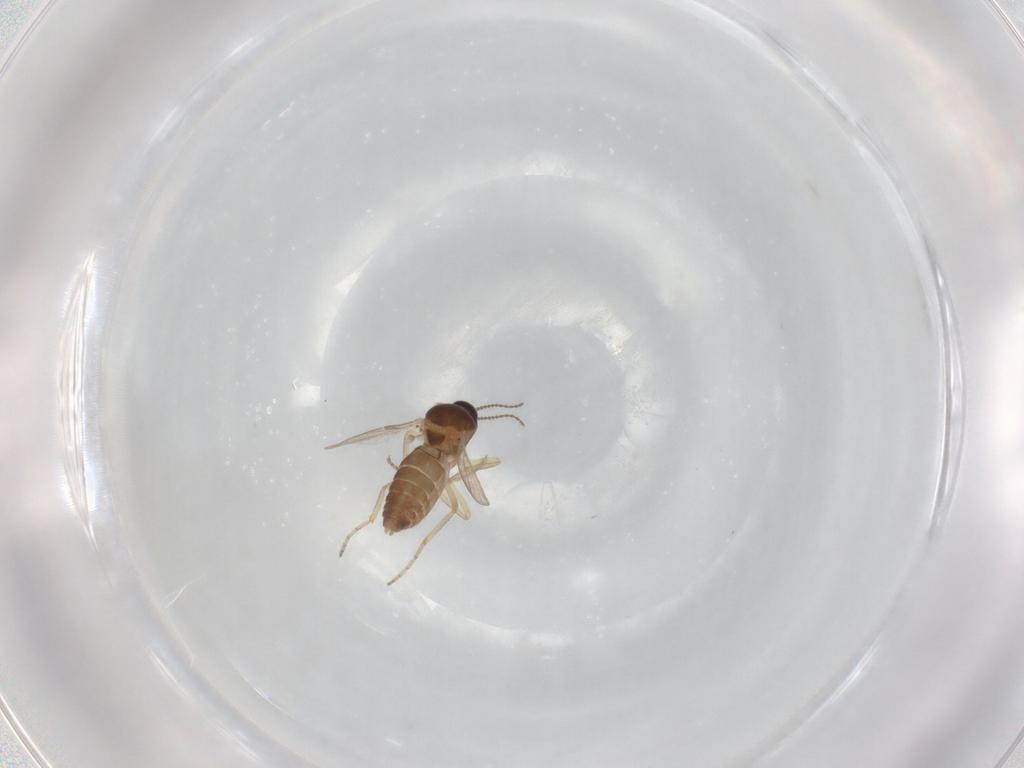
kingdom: Animalia
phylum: Arthropoda
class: Insecta
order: Diptera
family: Ceratopogonidae
